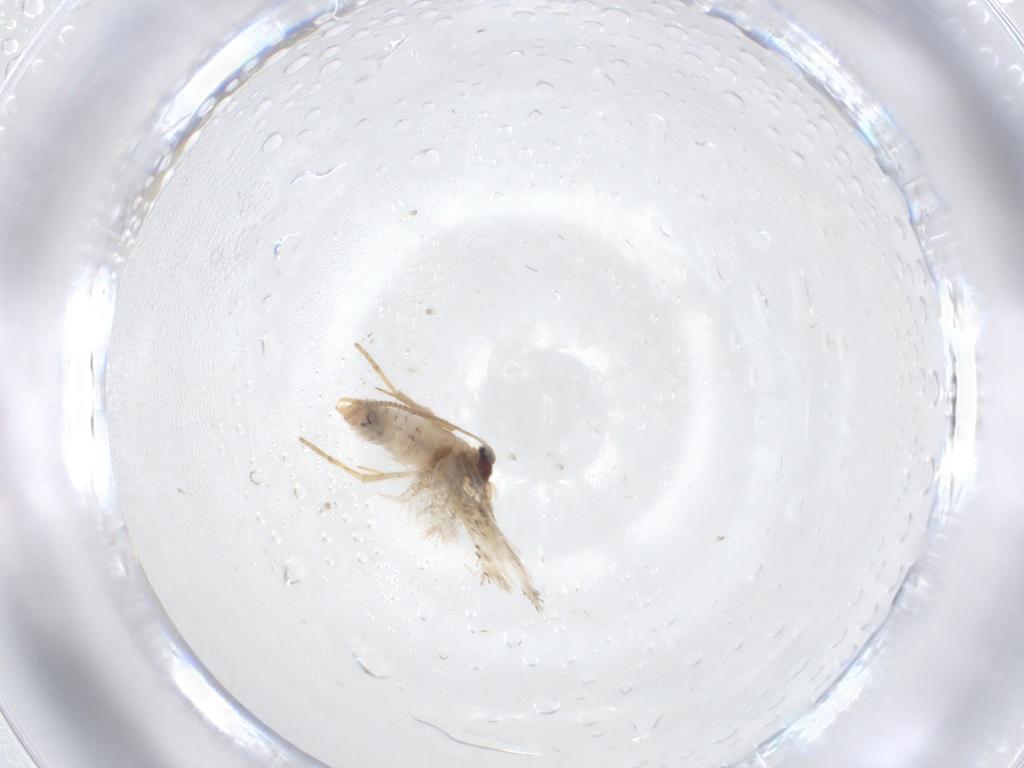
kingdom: Animalia
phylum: Arthropoda
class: Insecta
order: Lepidoptera
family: Nepticulidae
